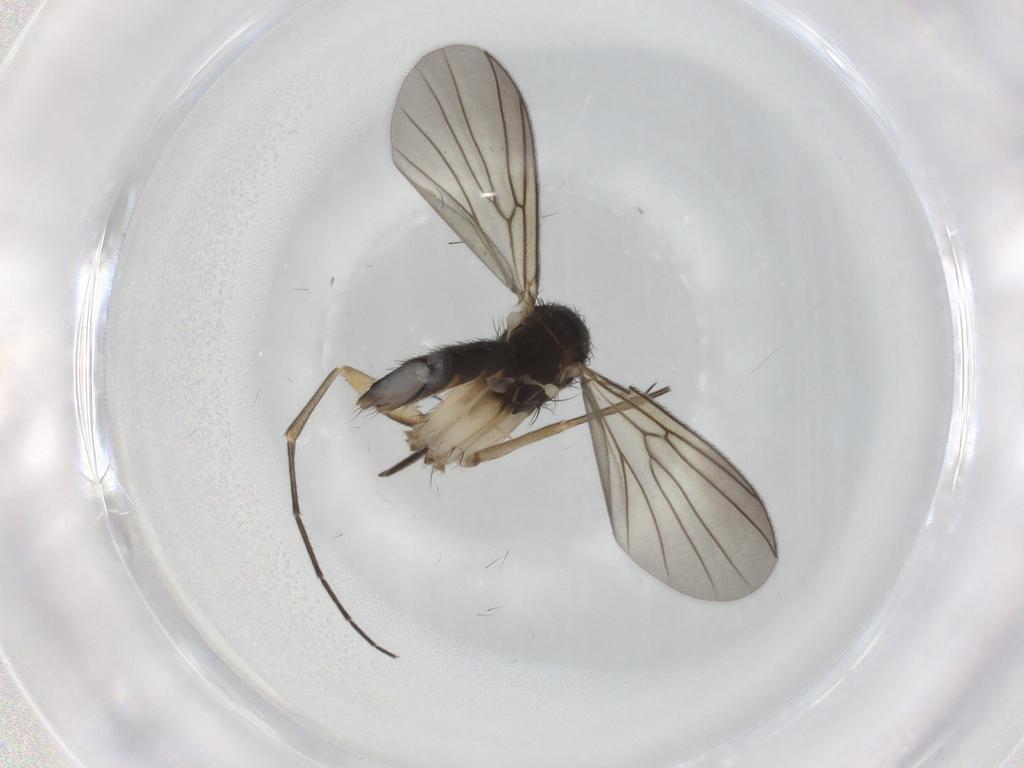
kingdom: Animalia
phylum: Arthropoda
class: Insecta
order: Diptera
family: Mycetophilidae
